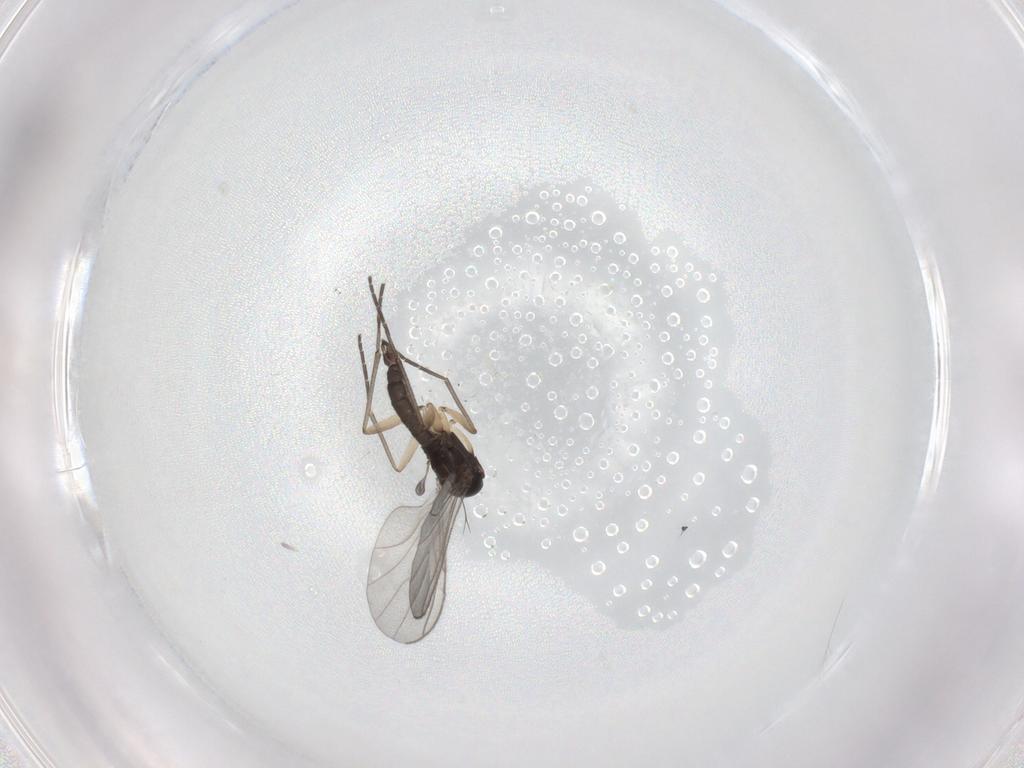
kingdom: Animalia
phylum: Arthropoda
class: Insecta
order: Diptera
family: Sciaridae
